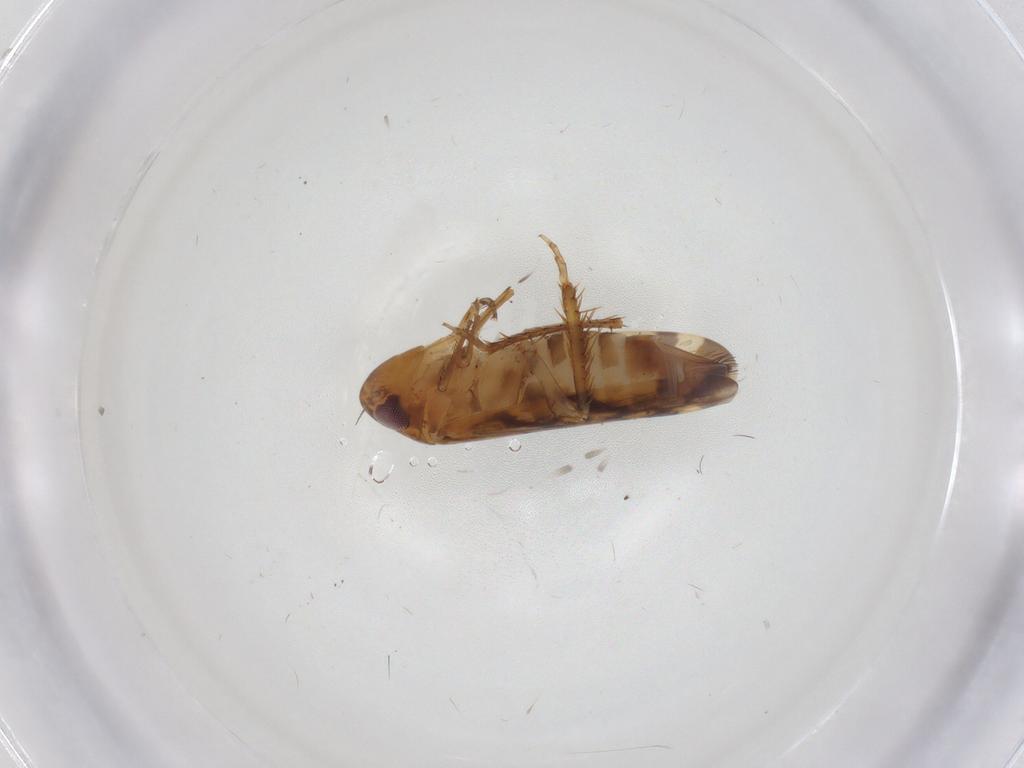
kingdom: Animalia
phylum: Arthropoda
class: Insecta
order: Hemiptera
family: Cicadellidae
